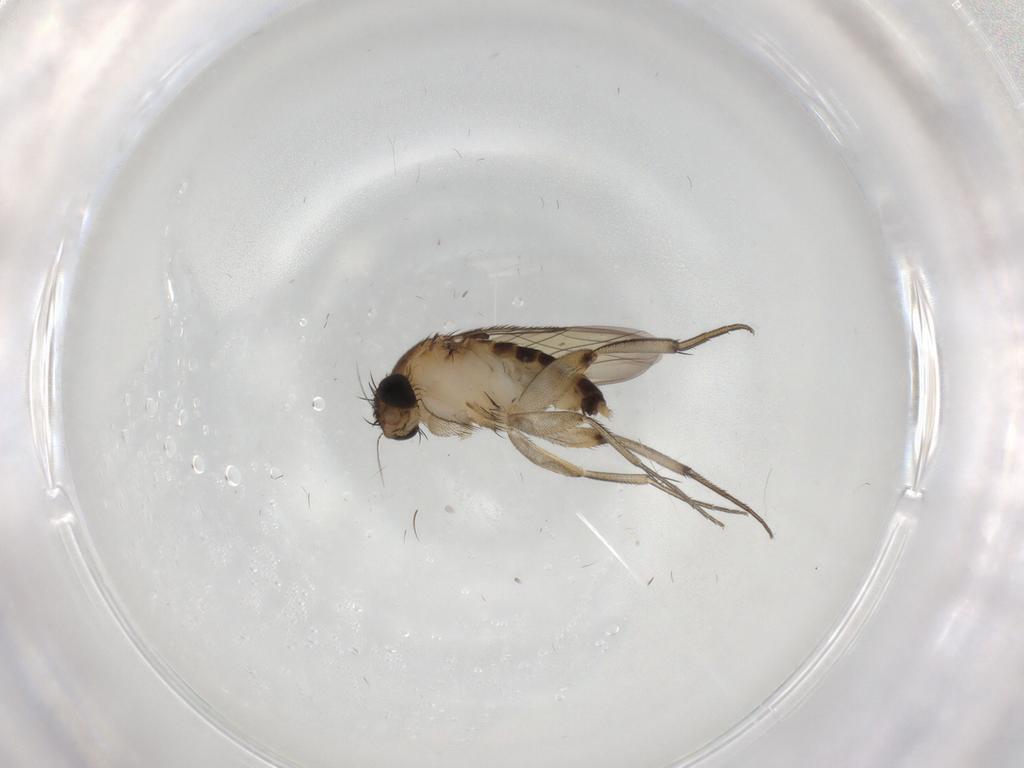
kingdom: Animalia
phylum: Arthropoda
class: Insecta
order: Diptera
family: Phoridae
